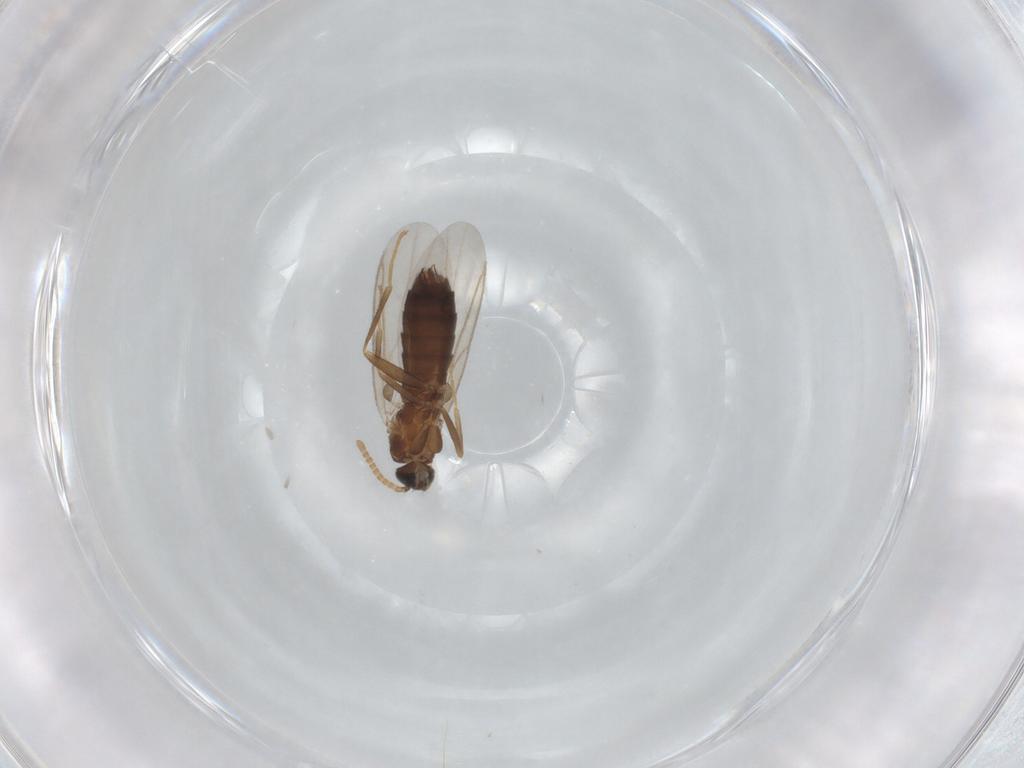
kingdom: Animalia
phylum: Arthropoda
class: Insecta
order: Diptera
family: Scatopsidae
